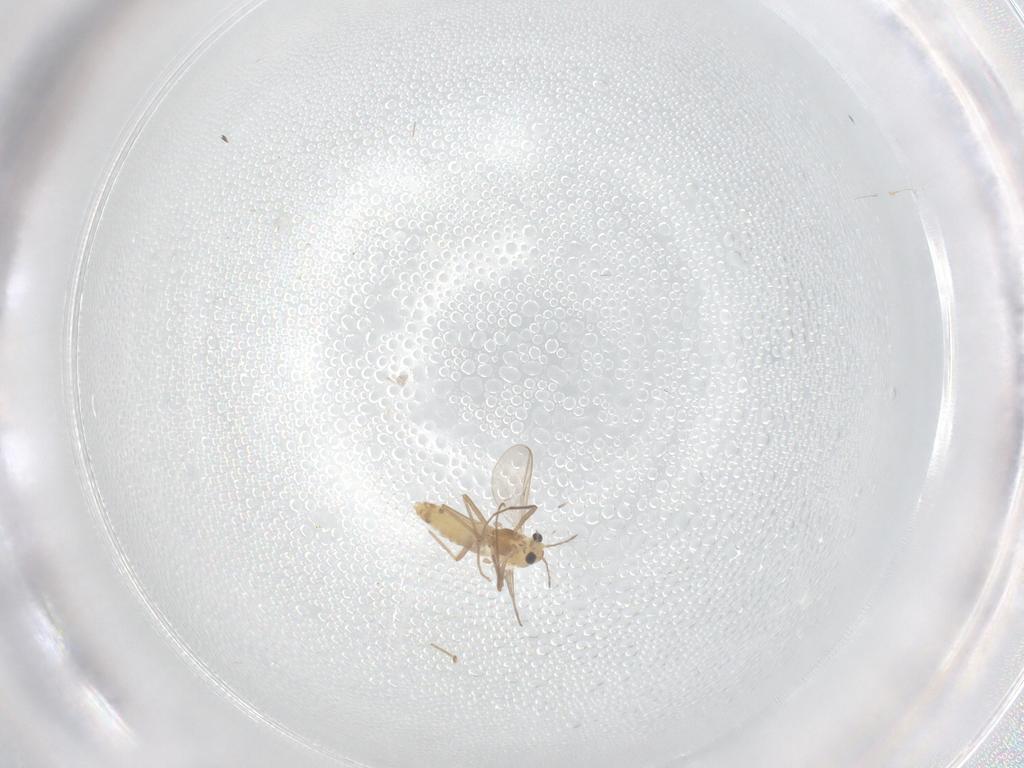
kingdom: Animalia
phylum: Arthropoda
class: Insecta
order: Diptera
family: Chironomidae
